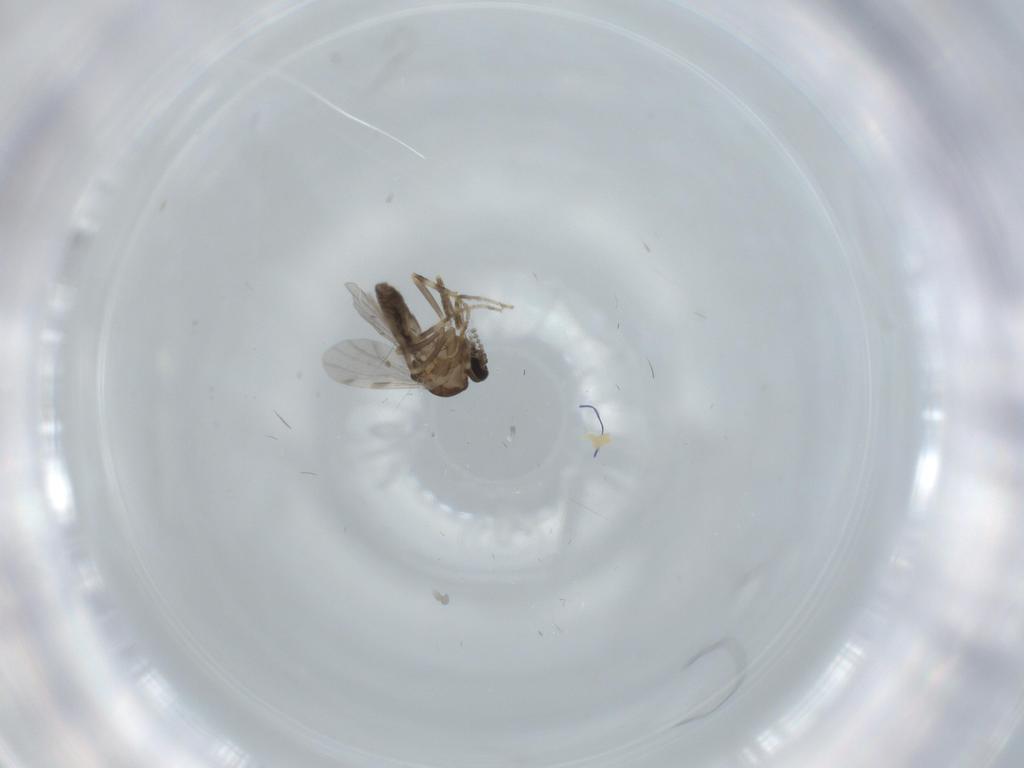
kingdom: Animalia
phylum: Arthropoda
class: Insecta
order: Diptera
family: Ceratopogonidae
